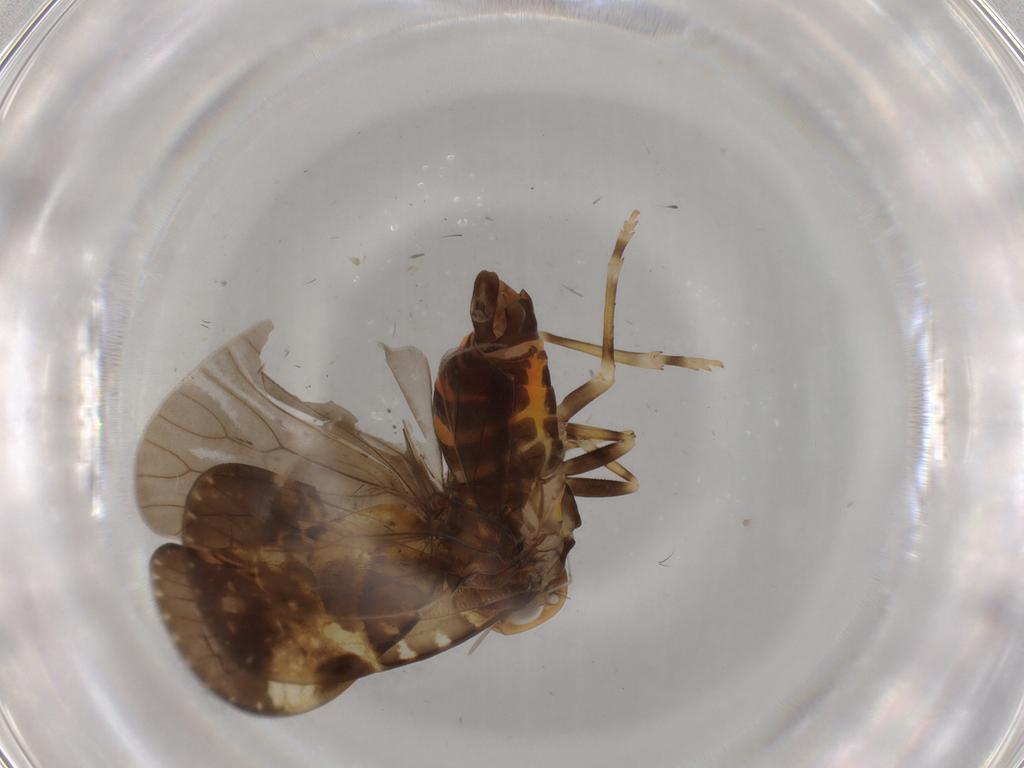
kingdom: Animalia
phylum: Arthropoda
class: Insecta
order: Hemiptera
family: Cixiidae
